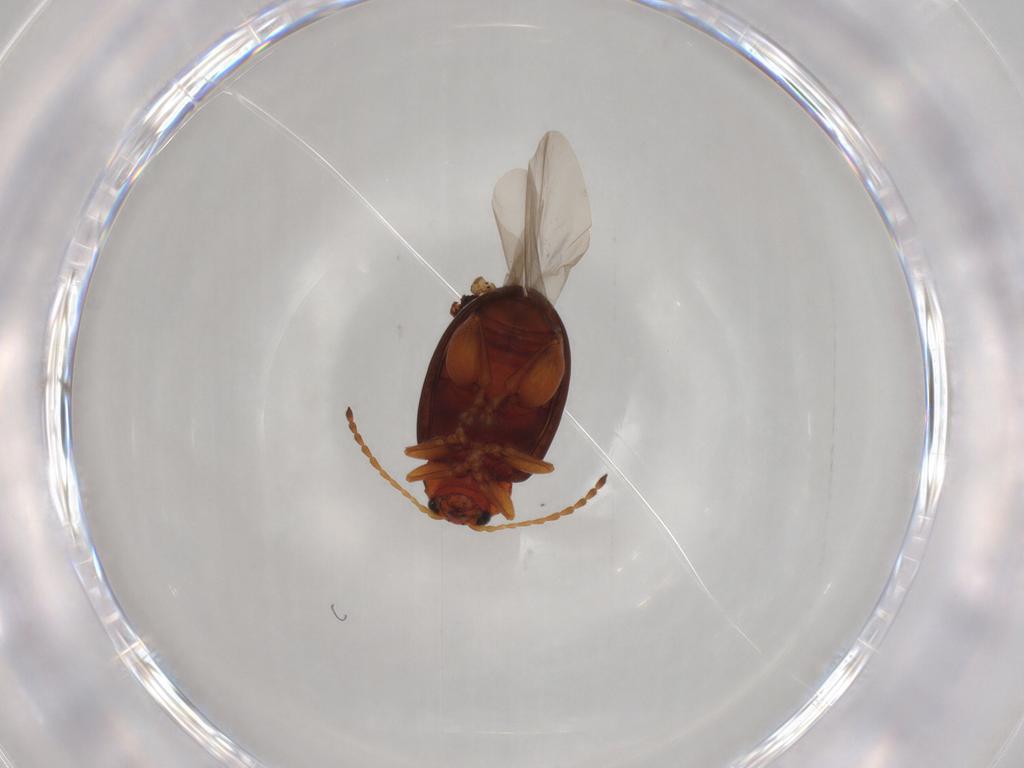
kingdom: Animalia
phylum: Arthropoda
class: Insecta
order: Coleoptera
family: Chrysomelidae
